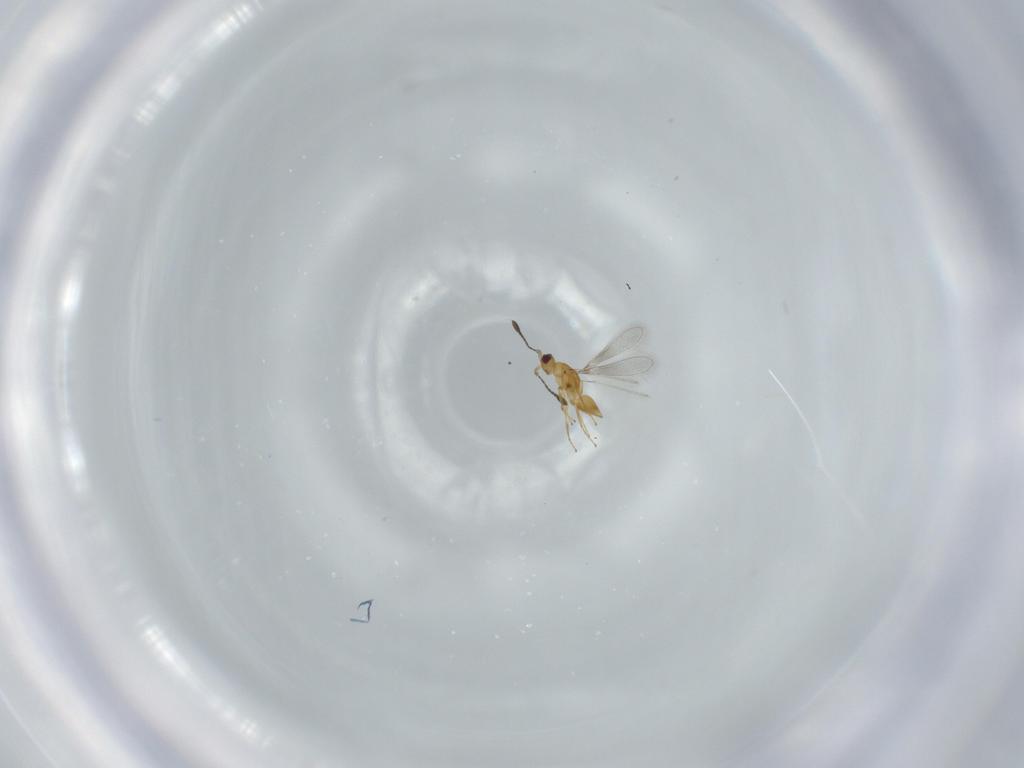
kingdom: Animalia
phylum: Arthropoda
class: Insecta
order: Hymenoptera
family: Mymaridae
